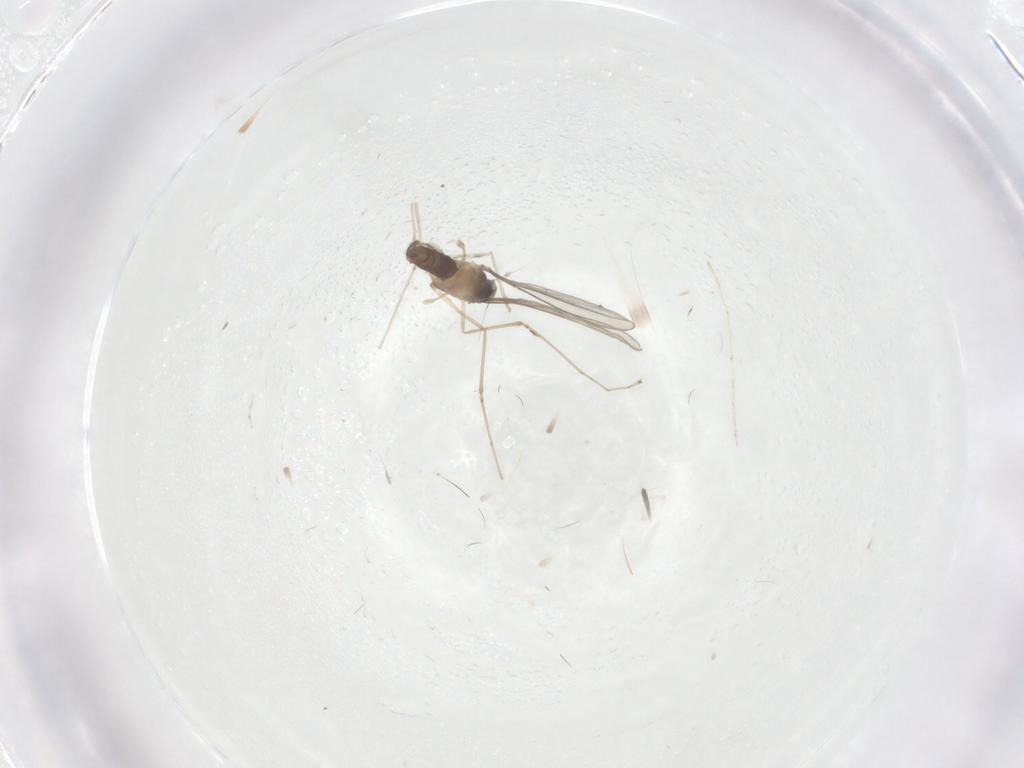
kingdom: Animalia
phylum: Arthropoda
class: Insecta
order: Diptera
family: Cecidomyiidae
